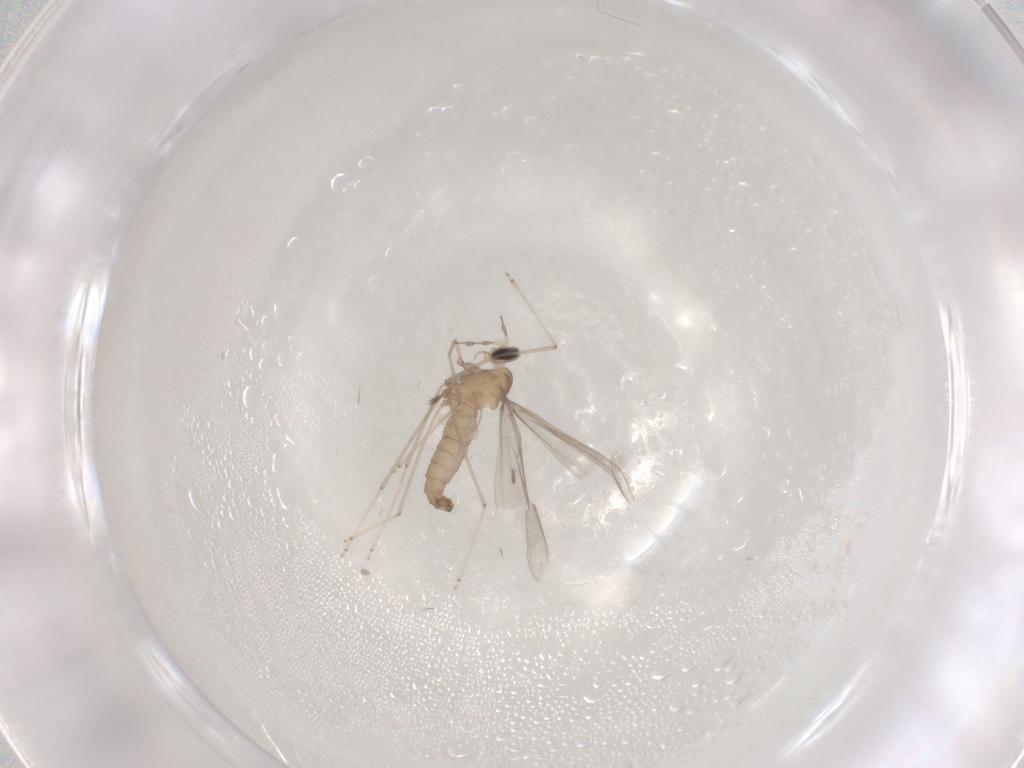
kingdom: Animalia
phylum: Arthropoda
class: Insecta
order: Diptera
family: Cecidomyiidae
